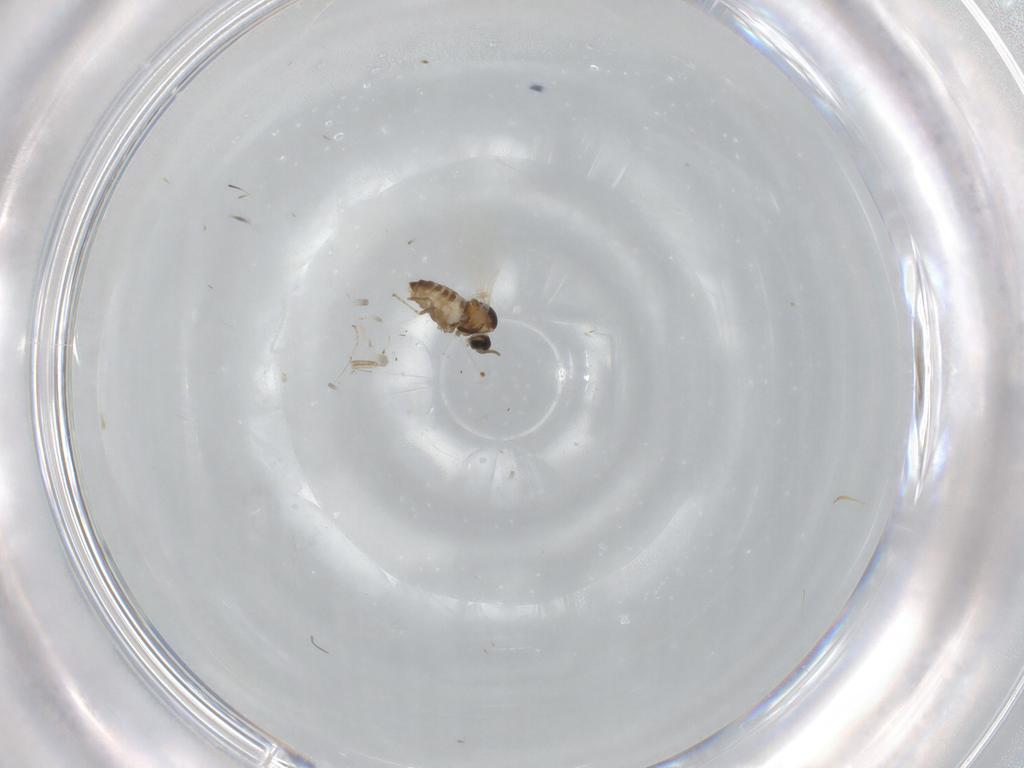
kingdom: Animalia
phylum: Arthropoda
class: Insecta
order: Diptera
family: Cecidomyiidae
